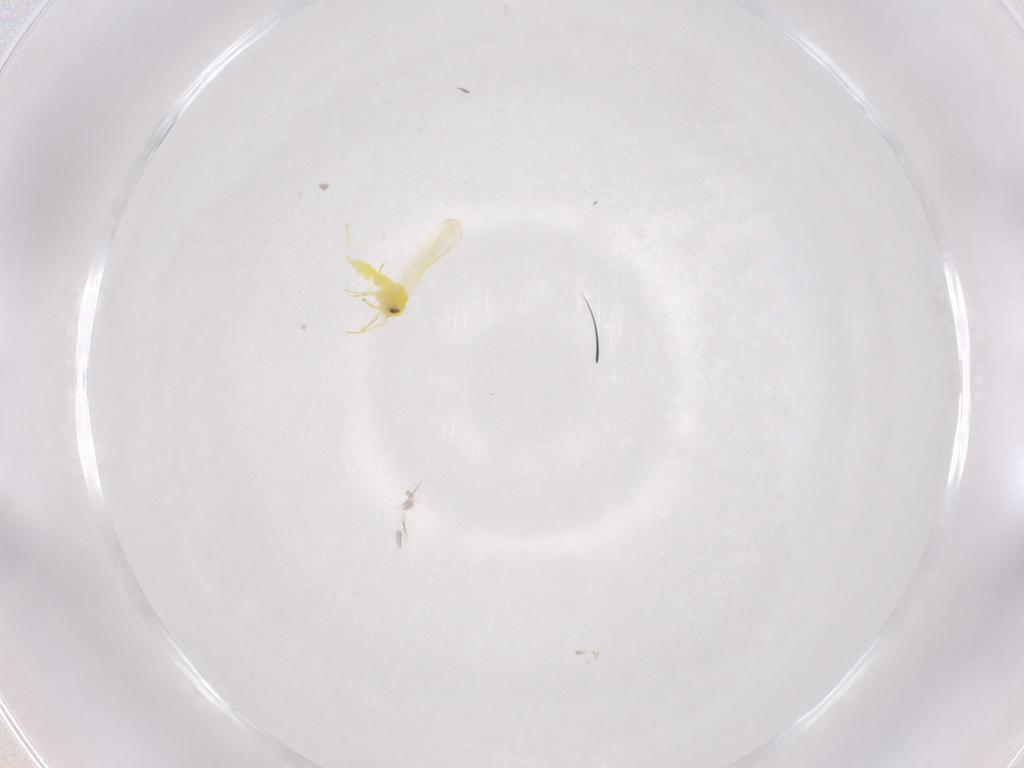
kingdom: Animalia
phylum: Arthropoda
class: Insecta
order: Hemiptera
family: Aleyrodidae
